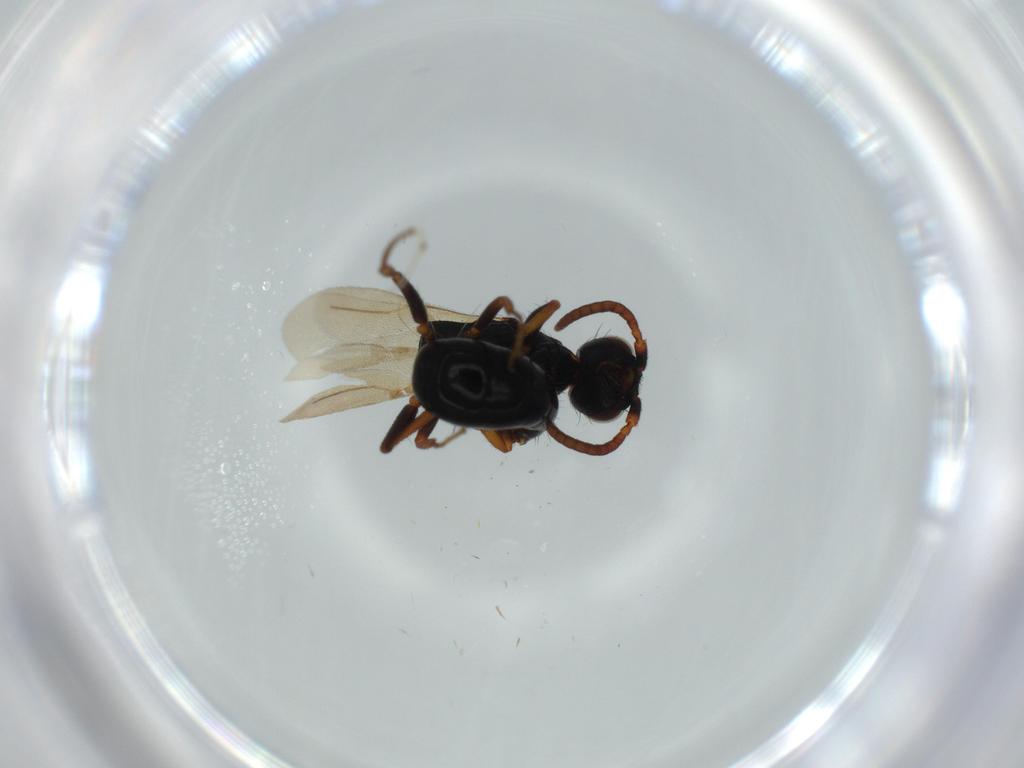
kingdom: Animalia
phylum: Arthropoda
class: Insecta
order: Hymenoptera
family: Bethylidae
